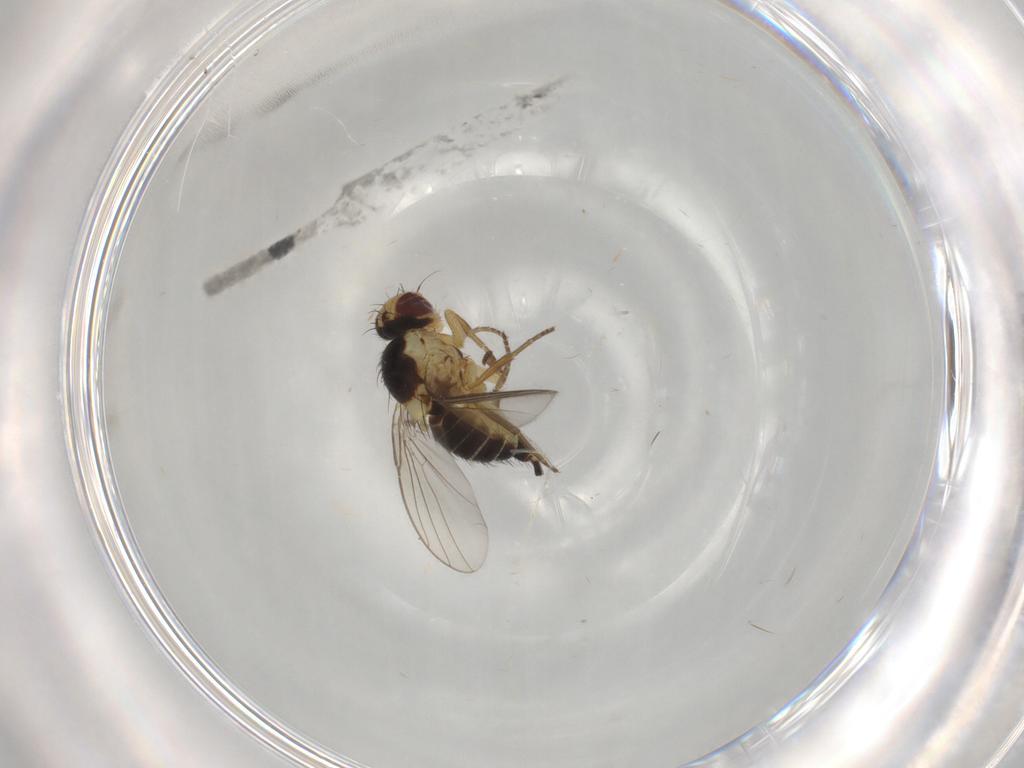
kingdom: Animalia
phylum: Arthropoda
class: Insecta
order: Diptera
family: Agromyzidae
